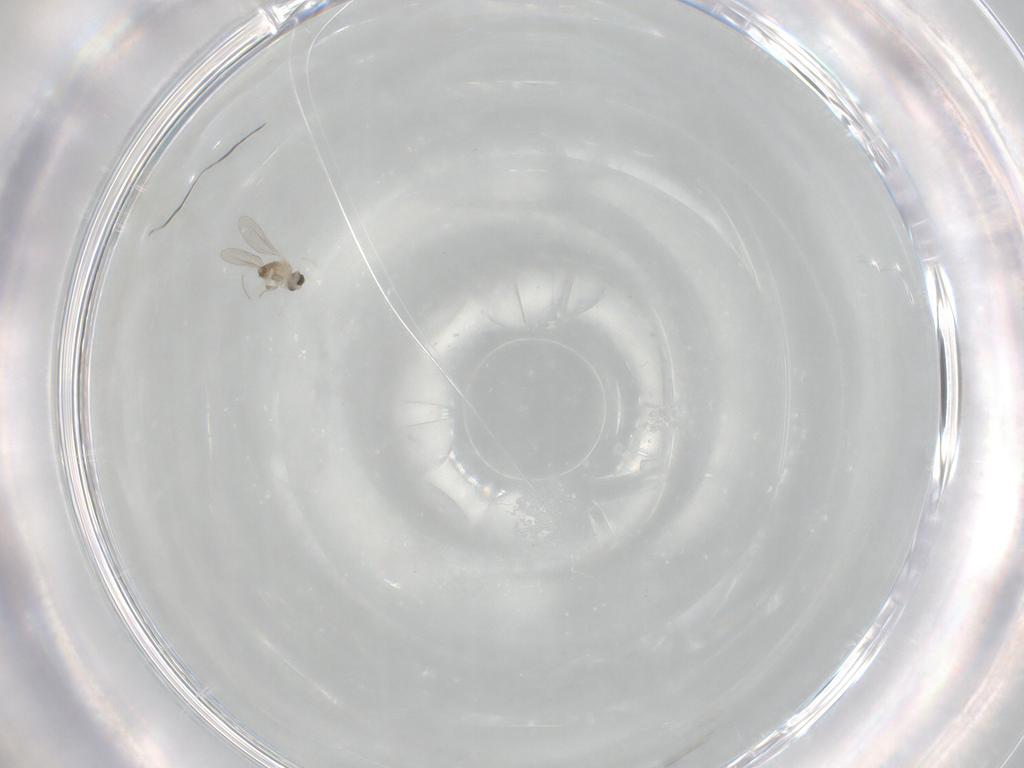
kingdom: Animalia
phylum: Arthropoda
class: Insecta
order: Diptera
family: Cecidomyiidae
